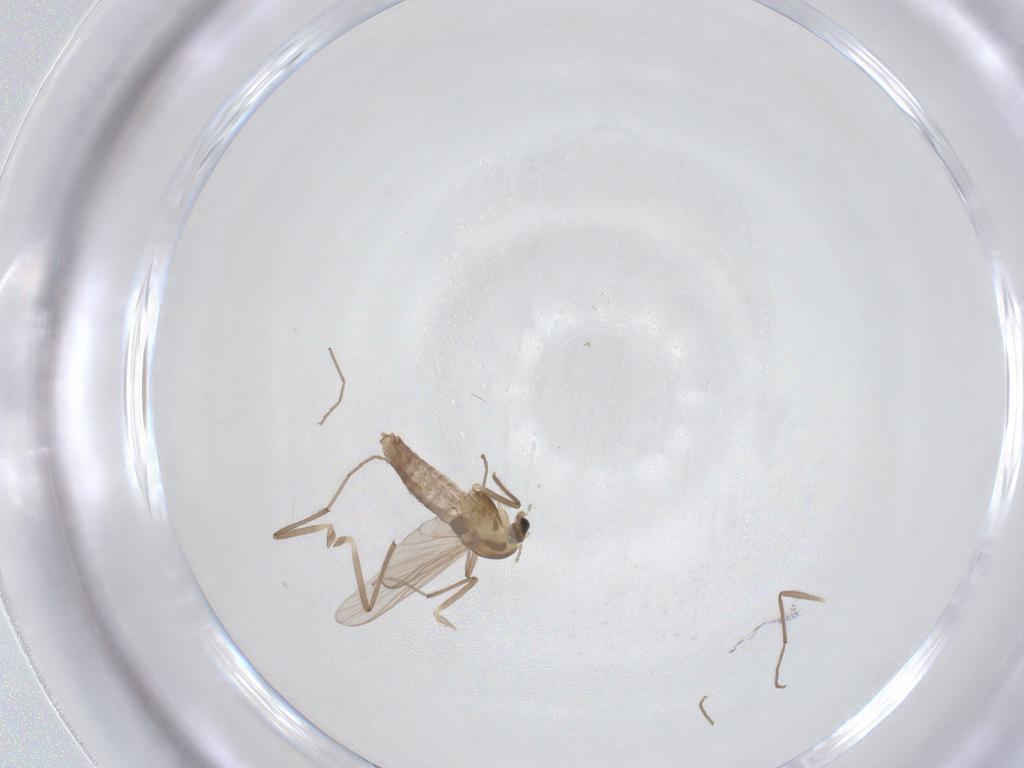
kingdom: Animalia
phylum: Arthropoda
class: Insecta
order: Diptera
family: Chironomidae
